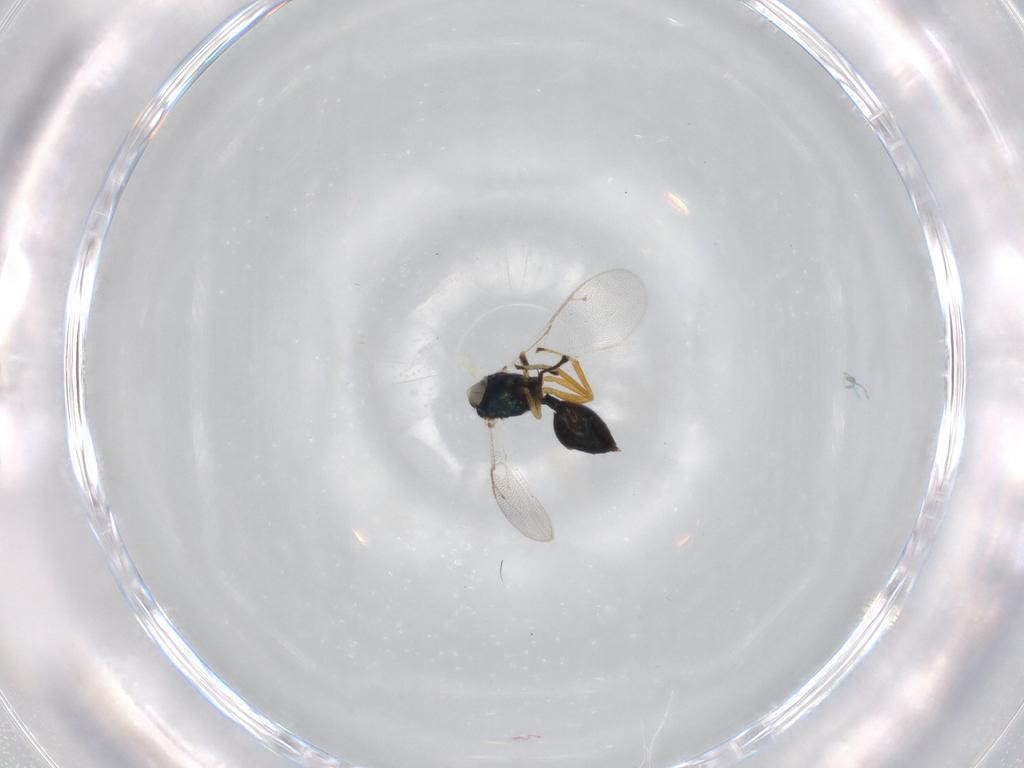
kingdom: Animalia
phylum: Arthropoda
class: Insecta
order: Hymenoptera
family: Pteromalidae
